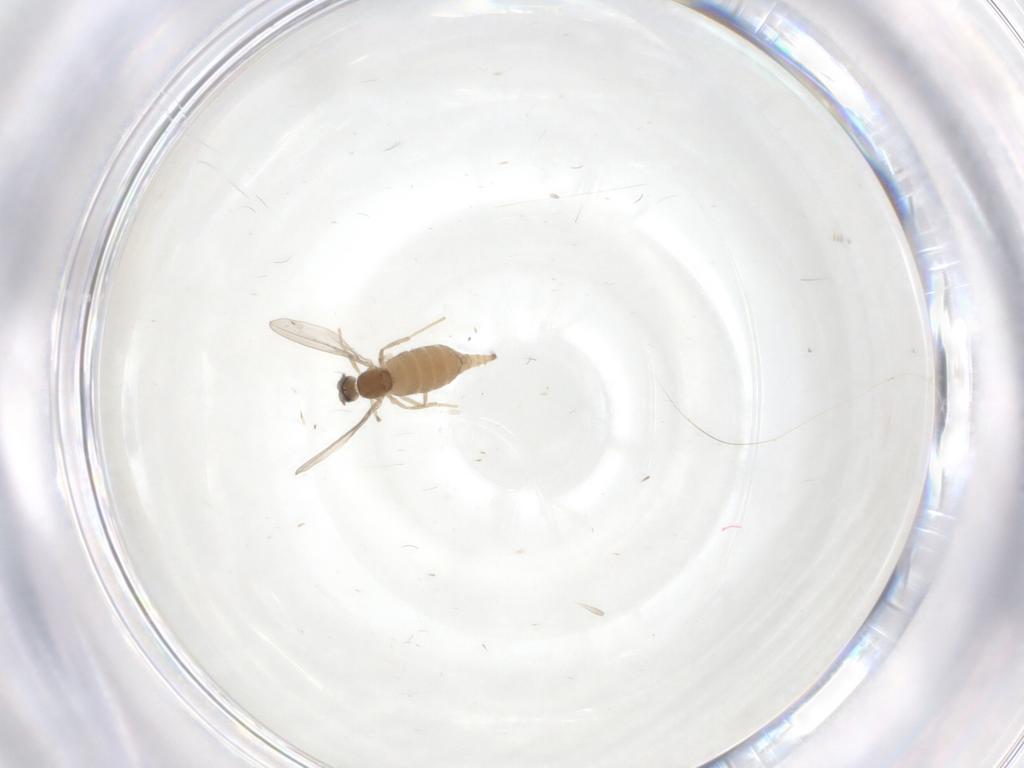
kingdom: Animalia
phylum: Arthropoda
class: Insecta
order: Diptera
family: Cecidomyiidae
